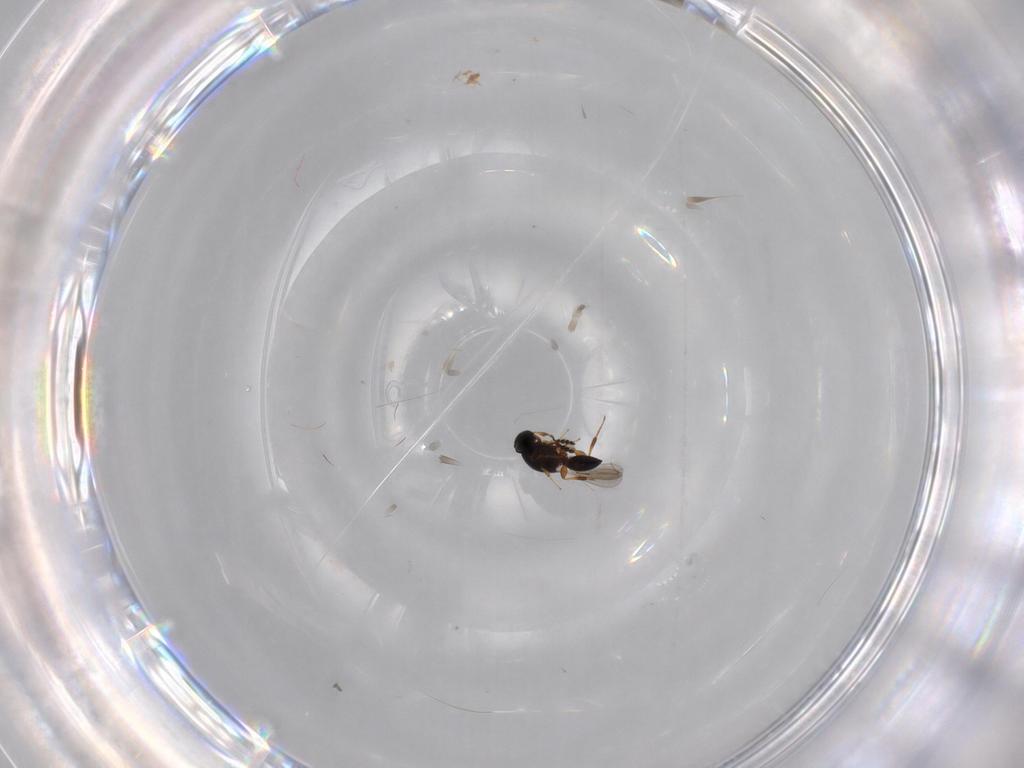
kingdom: Animalia
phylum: Arthropoda
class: Insecta
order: Hymenoptera
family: Platygastridae
